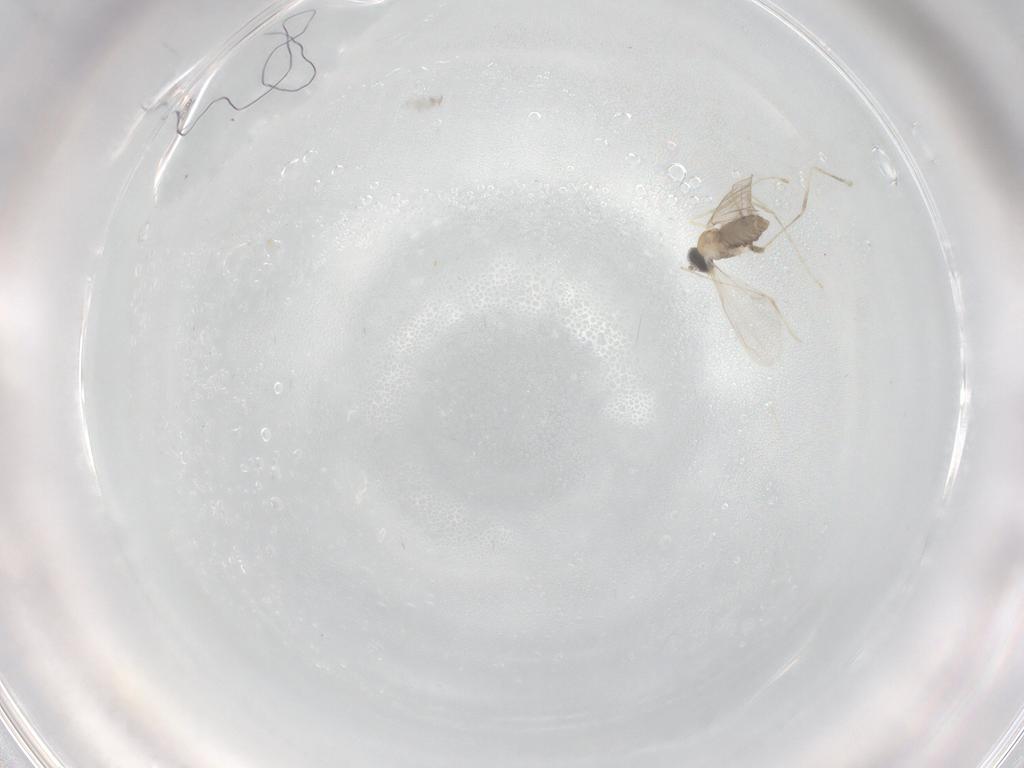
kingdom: Animalia
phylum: Arthropoda
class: Insecta
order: Diptera
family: Psychodidae
